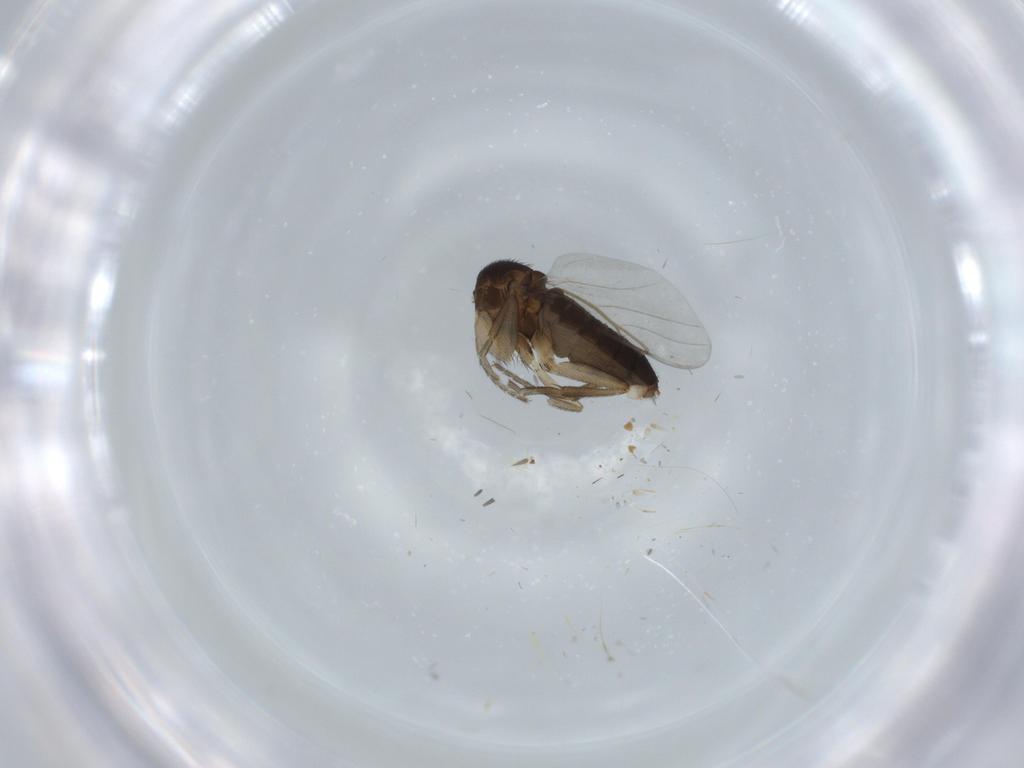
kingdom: Animalia
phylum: Arthropoda
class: Insecta
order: Diptera
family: Phoridae
